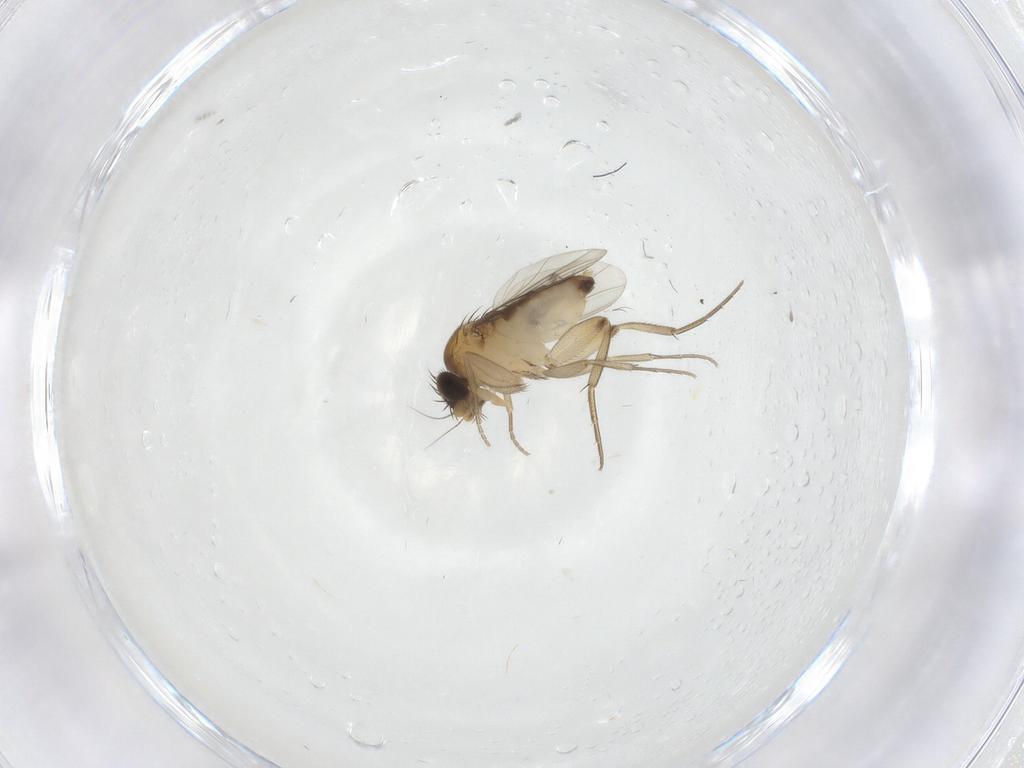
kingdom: Animalia
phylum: Arthropoda
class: Insecta
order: Diptera
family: Phoridae
